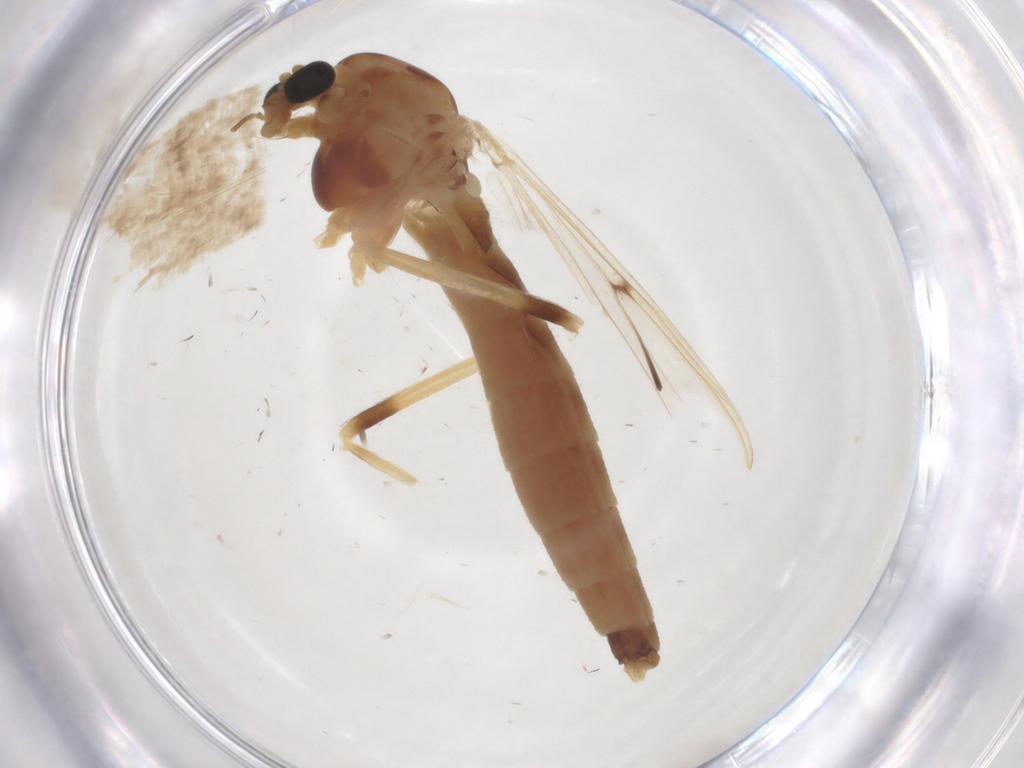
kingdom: Animalia
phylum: Arthropoda
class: Insecta
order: Diptera
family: Chironomidae
